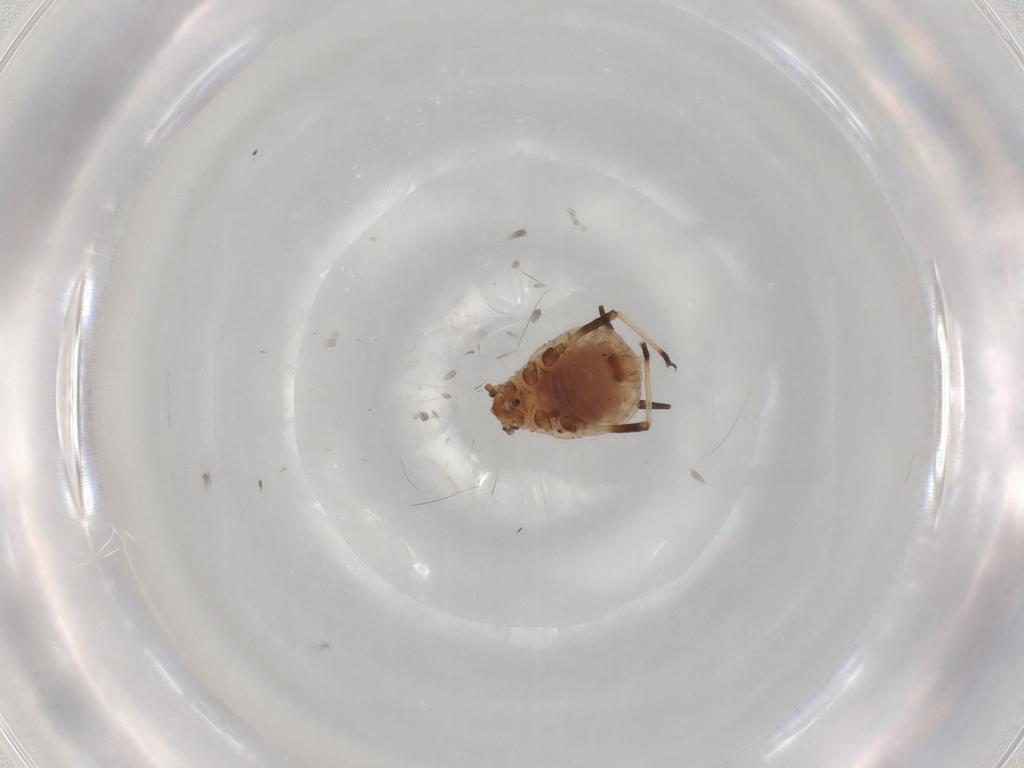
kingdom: Animalia
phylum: Arthropoda
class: Insecta
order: Hemiptera
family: Aphididae
